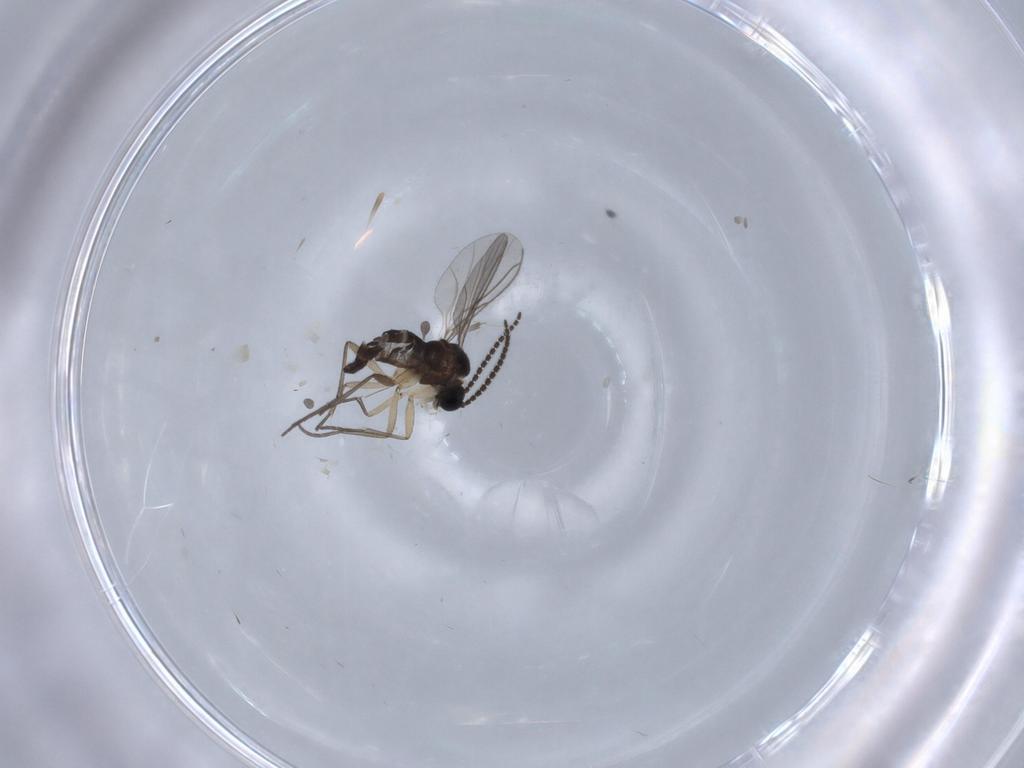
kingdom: Animalia
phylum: Arthropoda
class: Insecta
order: Diptera
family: Sciaridae
